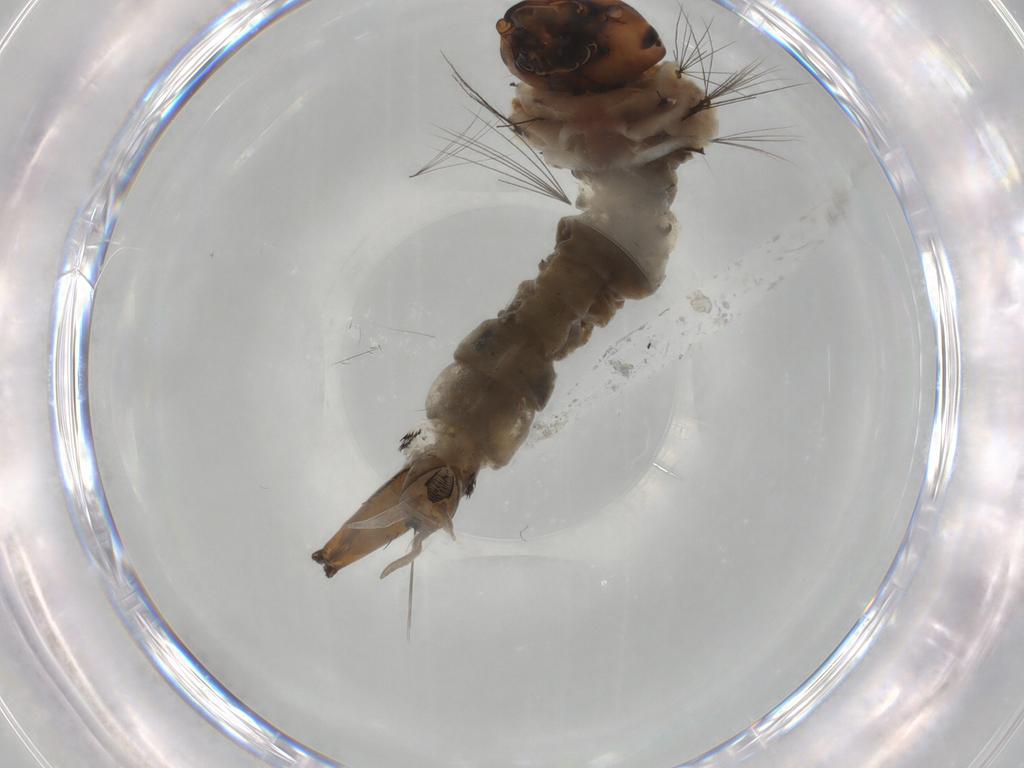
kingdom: Animalia
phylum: Arthropoda
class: Insecta
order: Diptera
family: Culicidae
